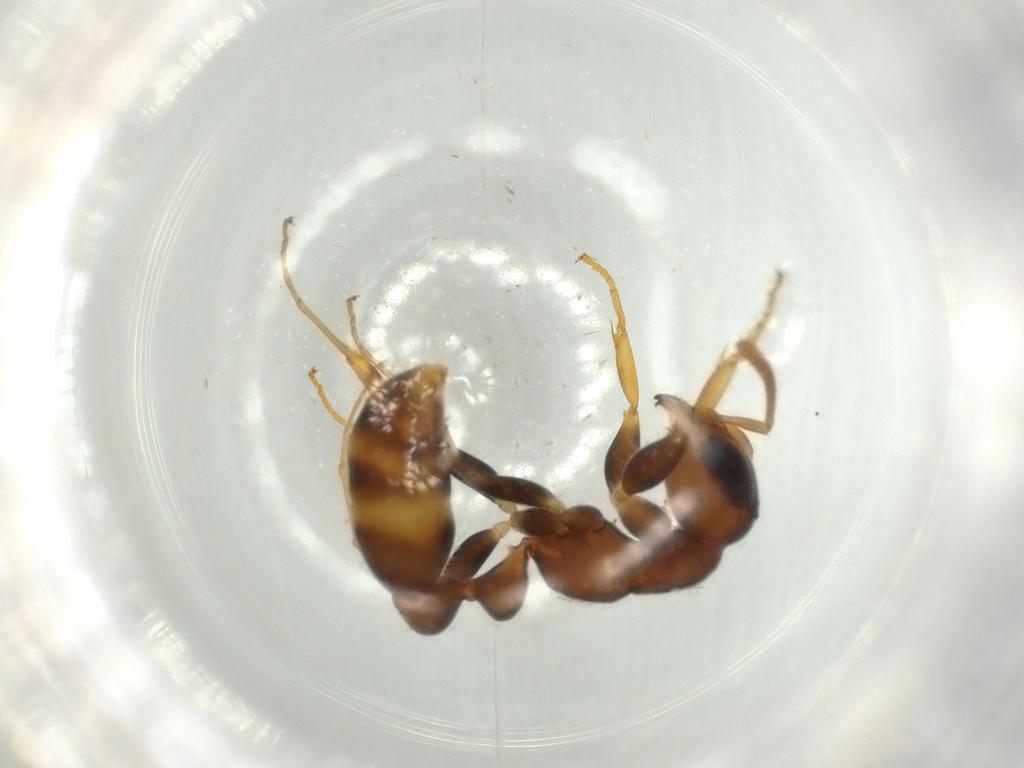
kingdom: Animalia
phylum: Arthropoda
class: Insecta
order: Hymenoptera
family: Formicidae
